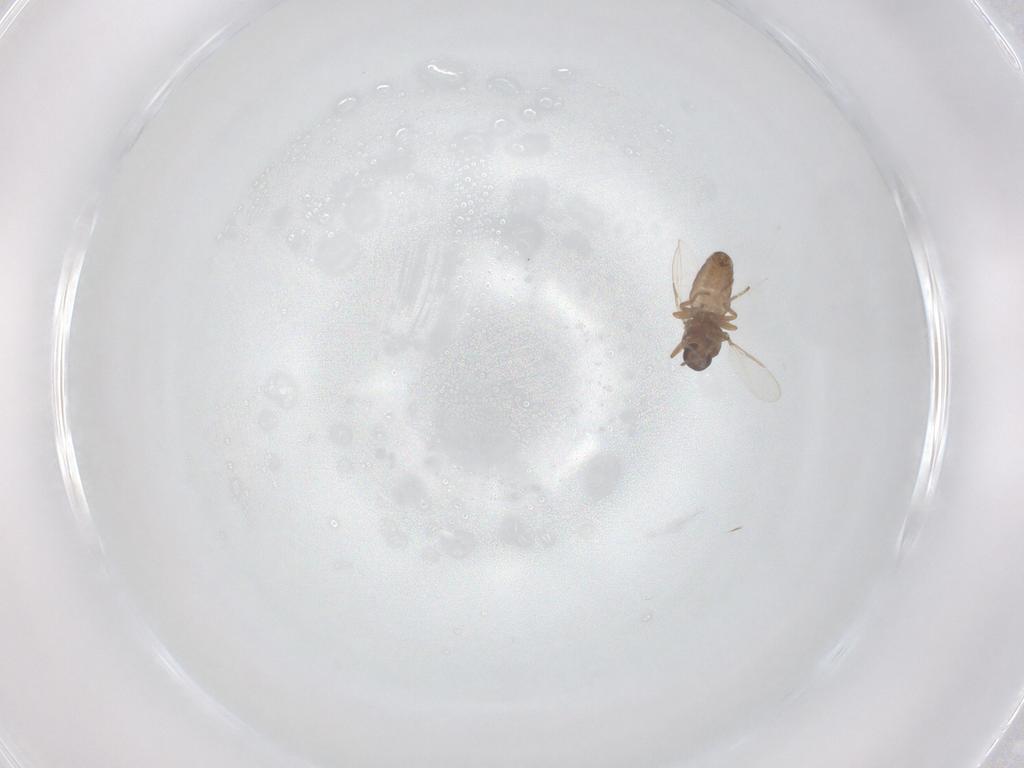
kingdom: Animalia
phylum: Arthropoda
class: Insecta
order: Diptera
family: Ceratopogonidae
